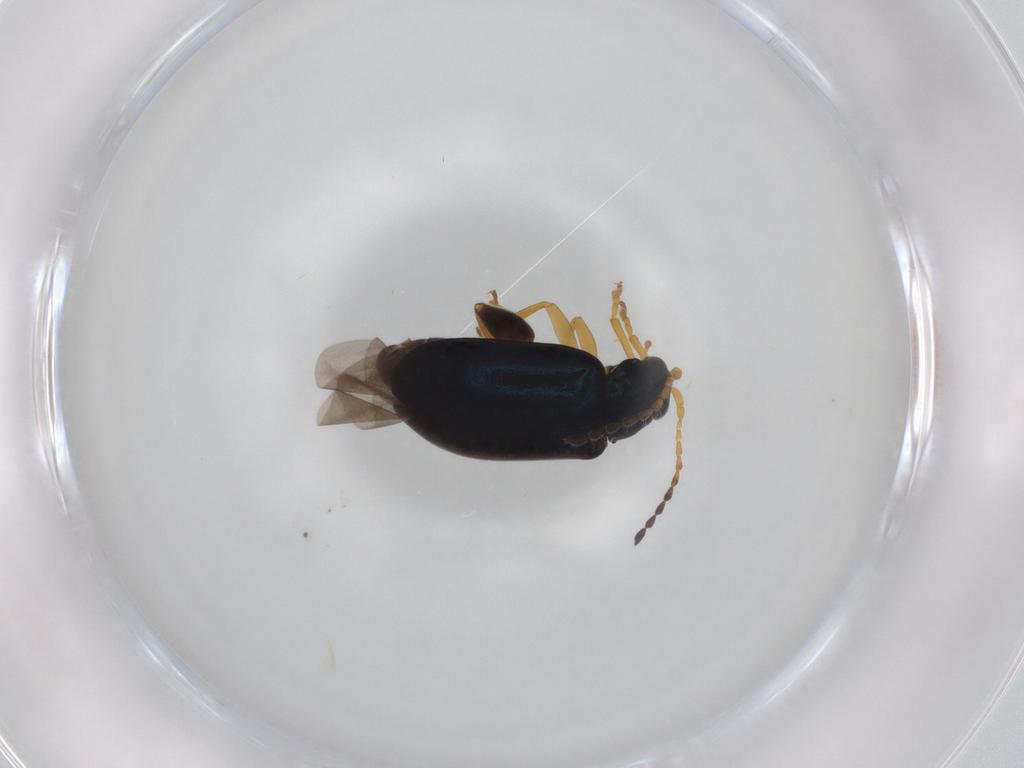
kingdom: Animalia
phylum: Arthropoda
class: Insecta
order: Coleoptera
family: Chrysomelidae
